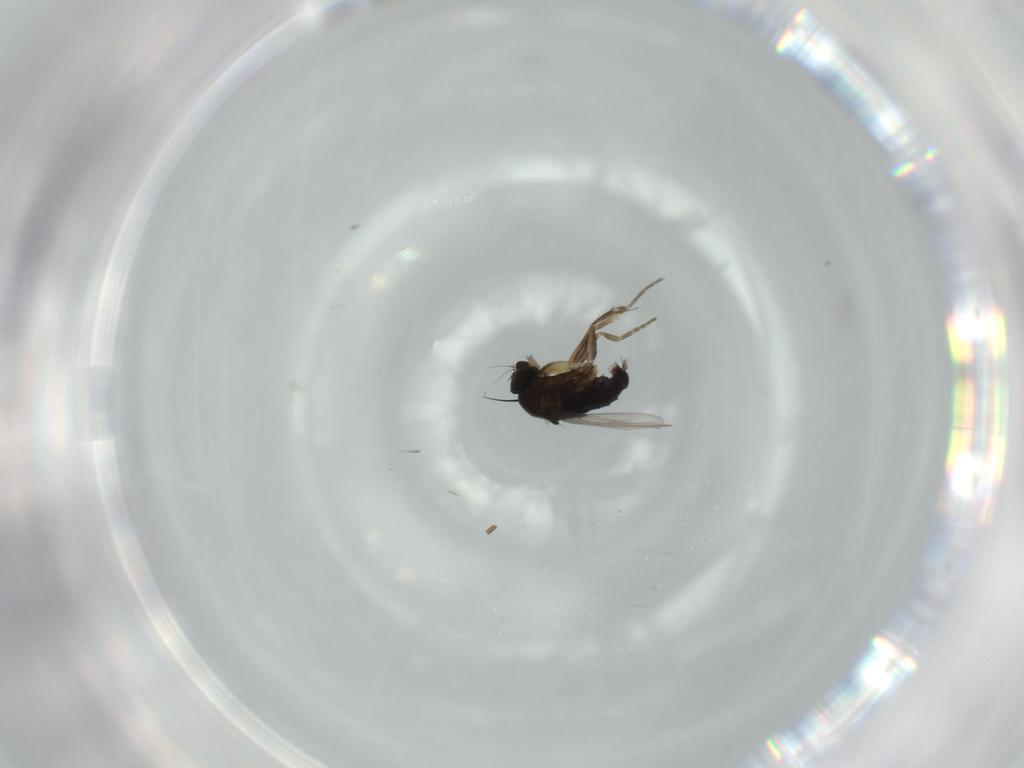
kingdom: Animalia
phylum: Arthropoda
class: Insecta
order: Diptera
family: Phoridae
